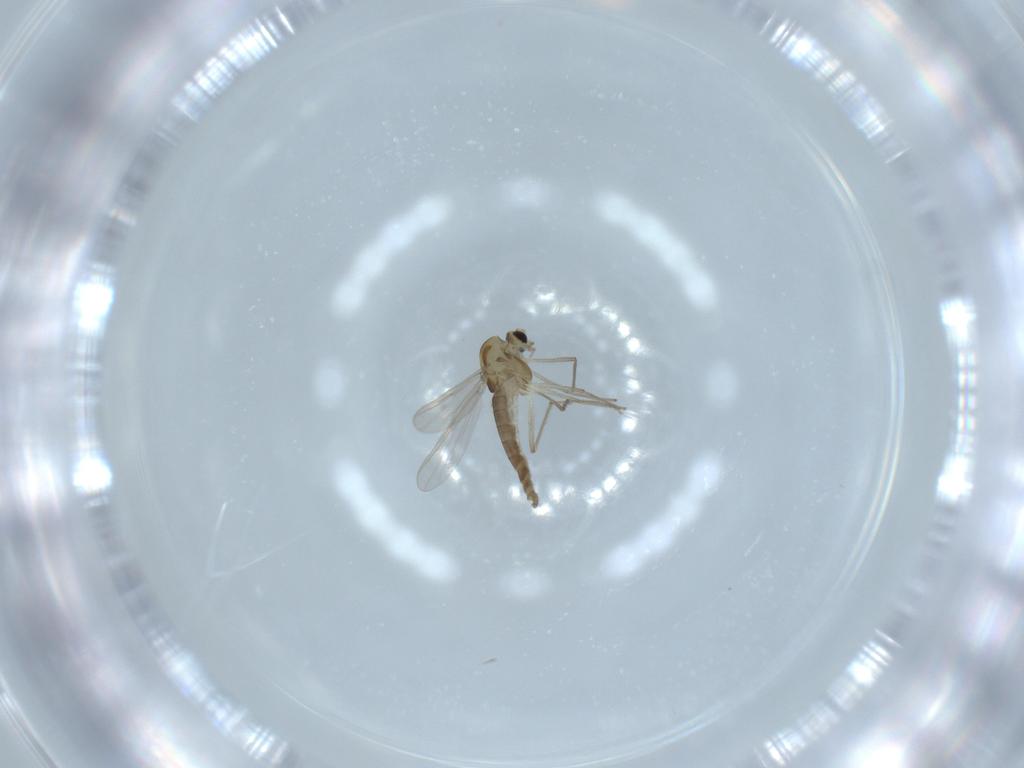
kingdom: Animalia
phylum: Arthropoda
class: Insecta
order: Diptera
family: Chironomidae
